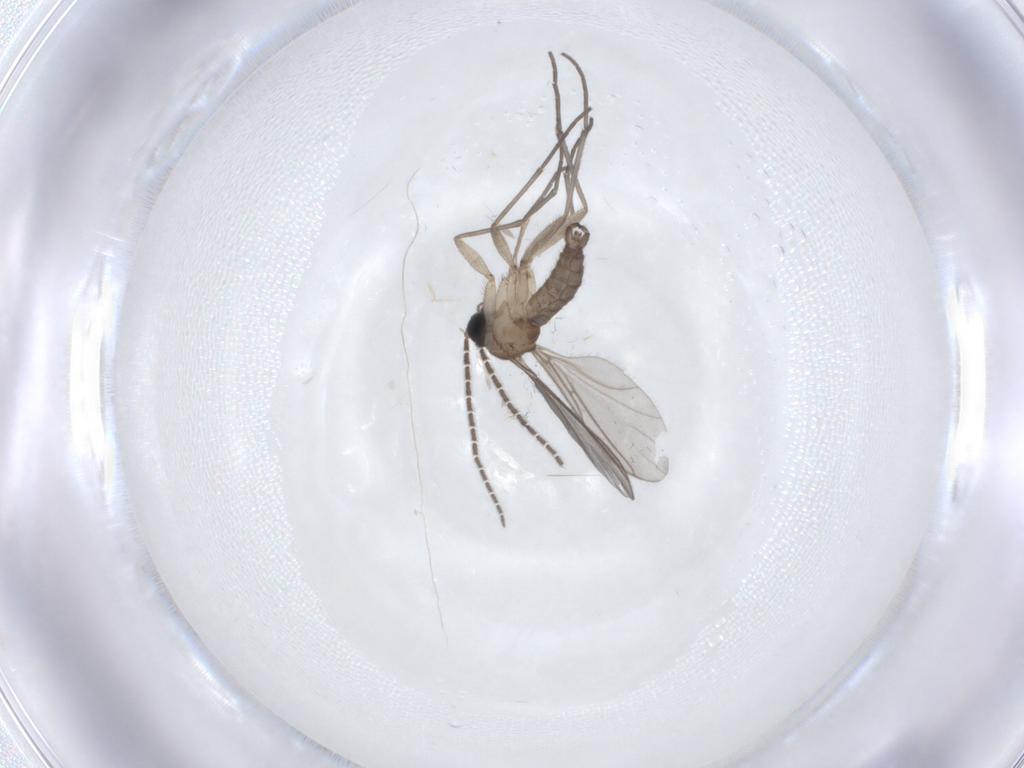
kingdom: Animalia
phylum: Arthropoda
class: Insecta
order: Diptera
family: Sciaridae
